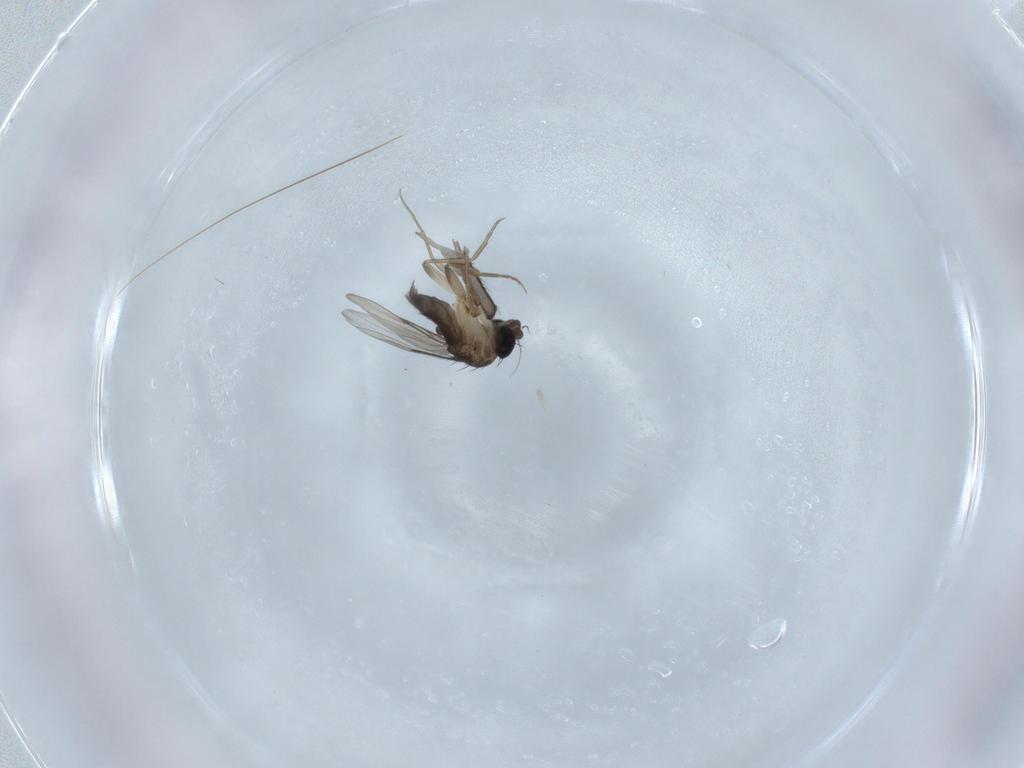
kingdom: Animalia
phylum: Arthropoda
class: Insecta
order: Diptera
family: Phoridae
